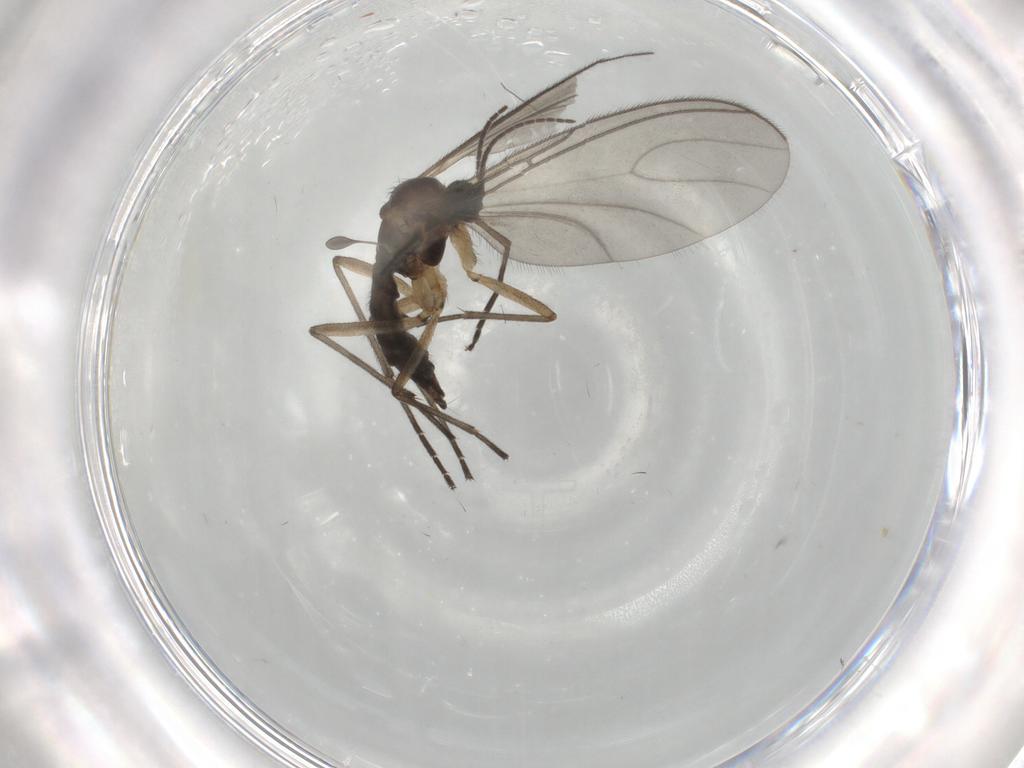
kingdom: Animalia
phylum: Arthropoda
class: Insecta
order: Diptera
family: Sciaridae
